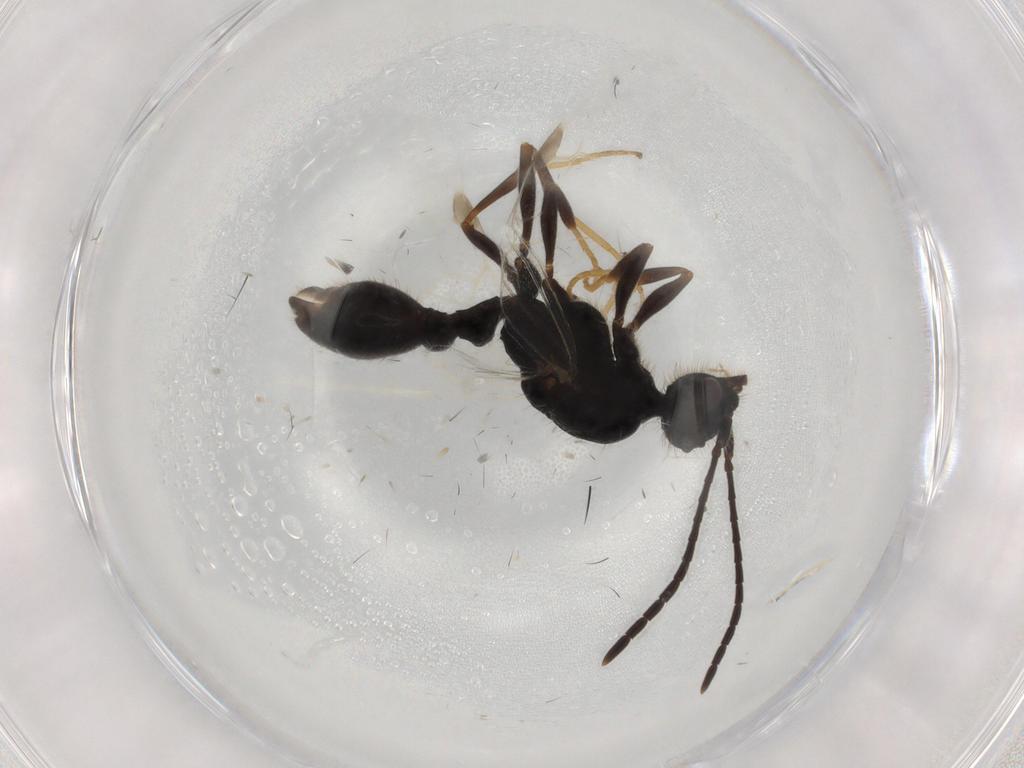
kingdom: Animalia
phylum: Arthropoda
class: Insecta
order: Hymenoptera
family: Formicidae
